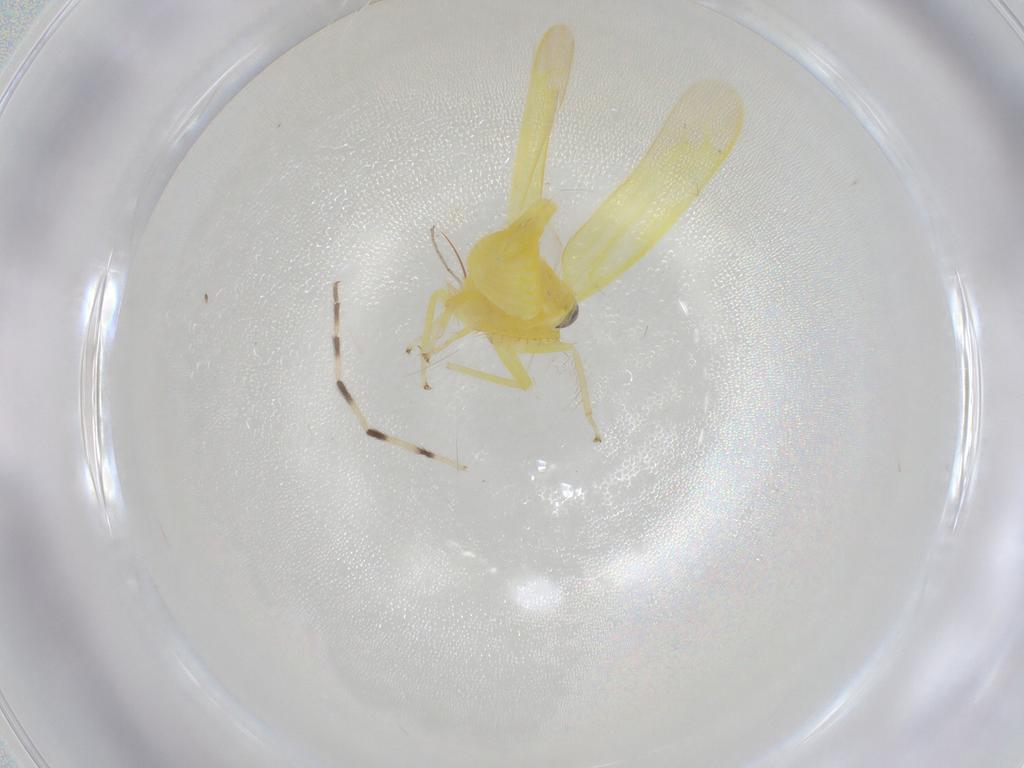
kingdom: Animalia
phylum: Arthropoda
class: Insecta
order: Hemiptera
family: Cicadellidae
